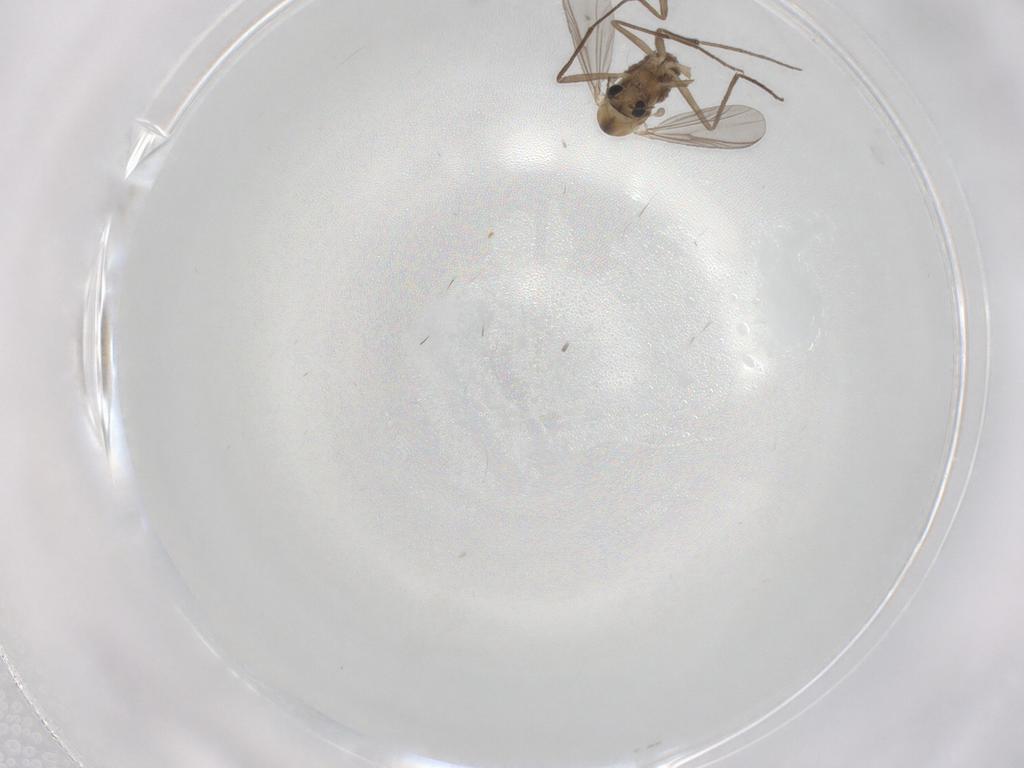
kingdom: Animalia
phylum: Arthropoda
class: Insecta
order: Diptera
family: Chironomidae
